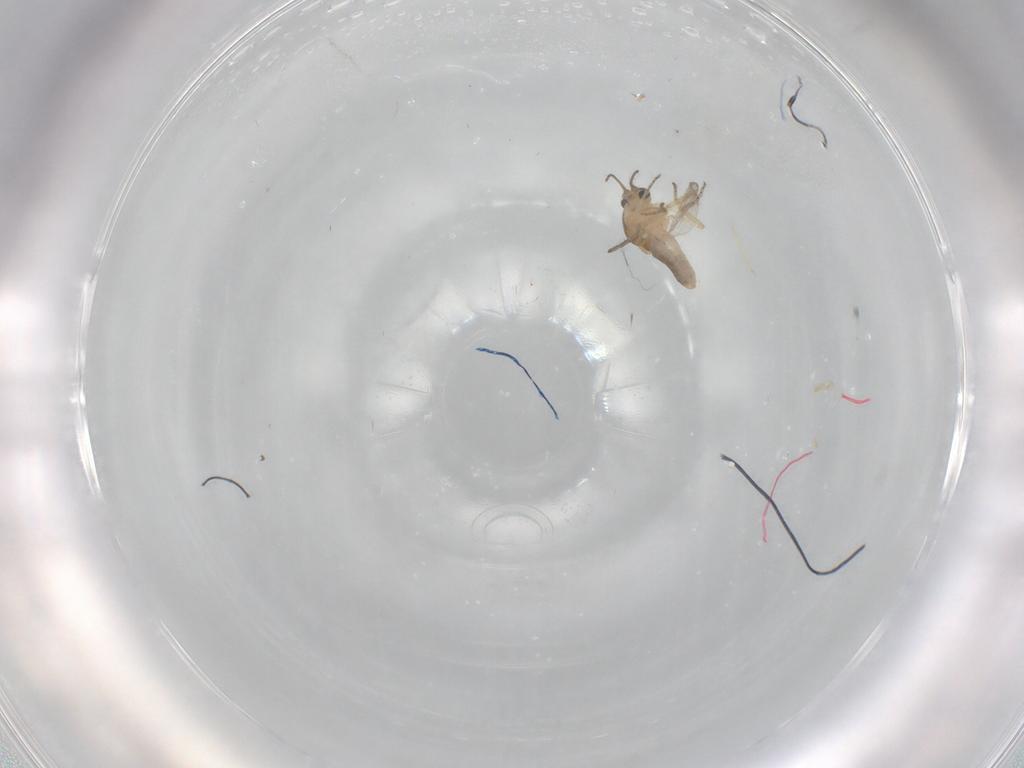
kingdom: Animalia
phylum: Arthropoda
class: Insecta
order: Diptera
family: Ceratopogonidae
